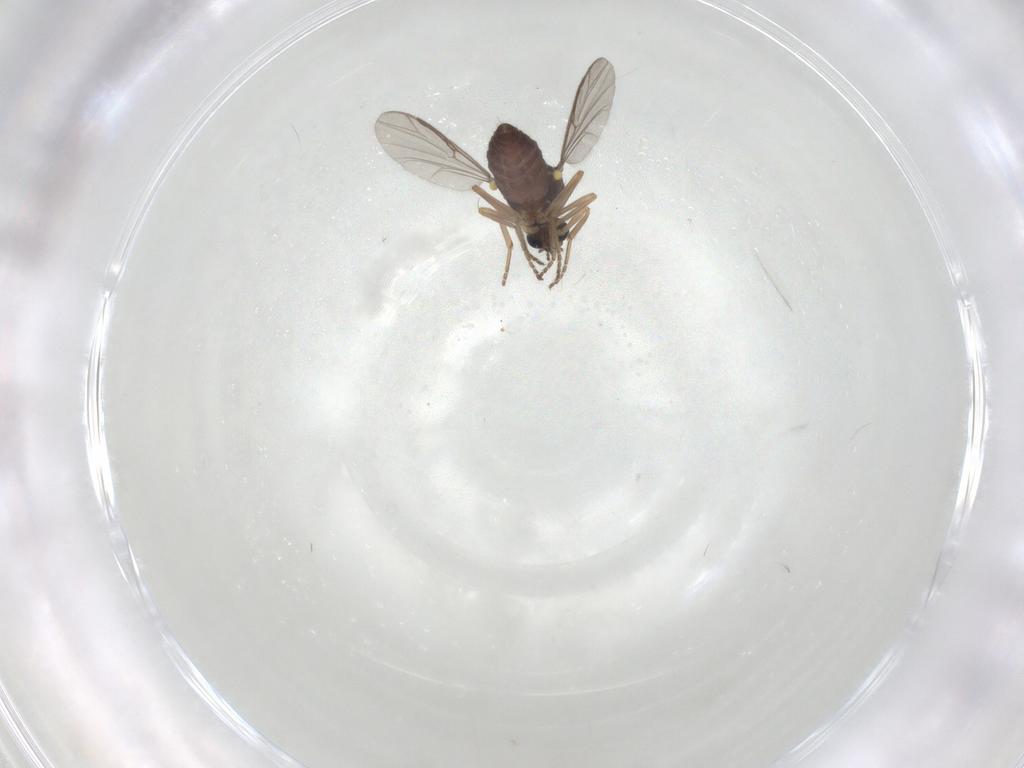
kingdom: Animalia
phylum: Arthropoda
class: Insecta
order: Diptera
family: Ceratopogonidae
